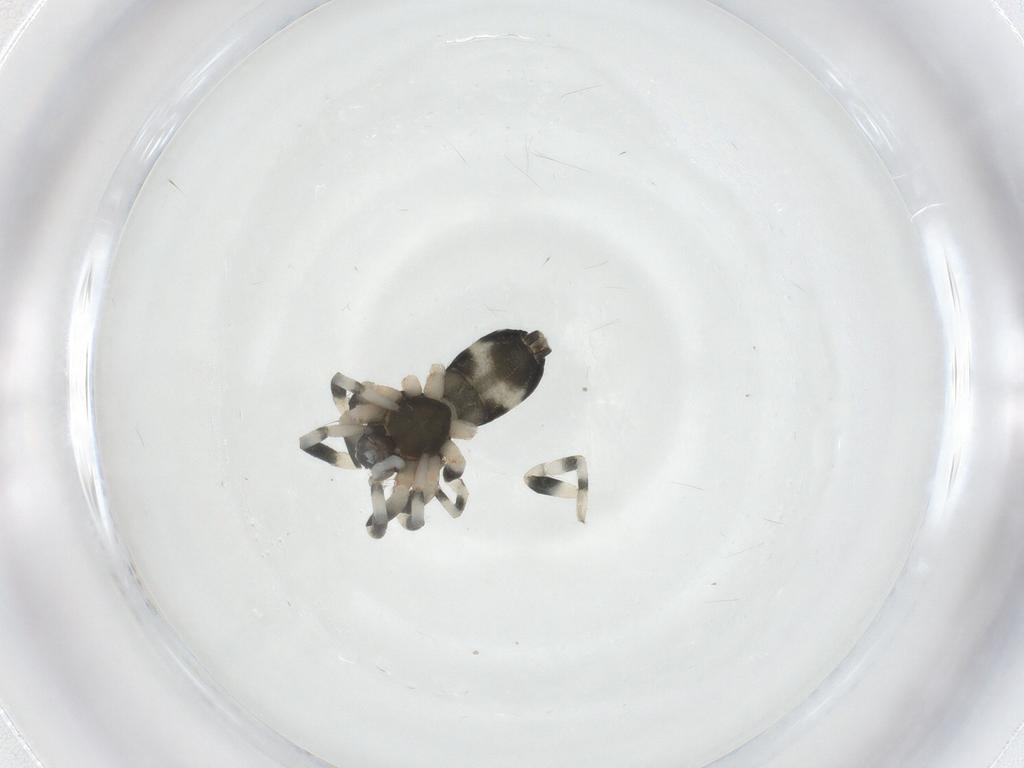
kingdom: Animalia
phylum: Arthropoda
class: Arachnida
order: Araneae
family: Lamponidae
